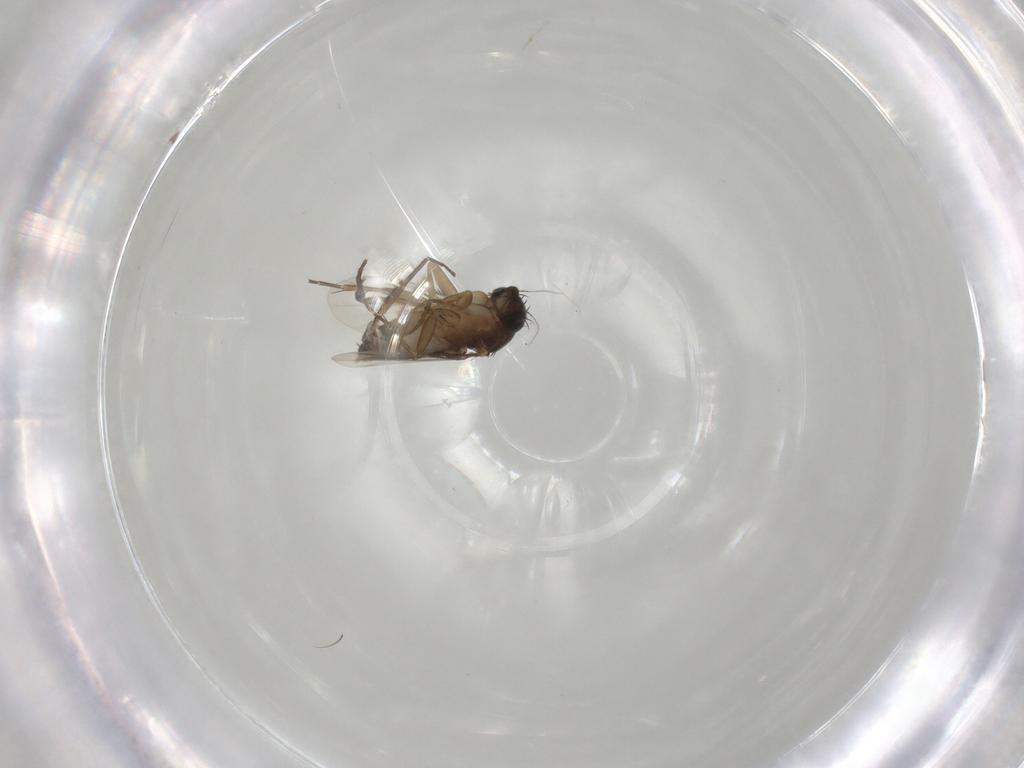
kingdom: Animalia
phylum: Arthropoda
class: Insecta
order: Diptera
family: Phoridae
